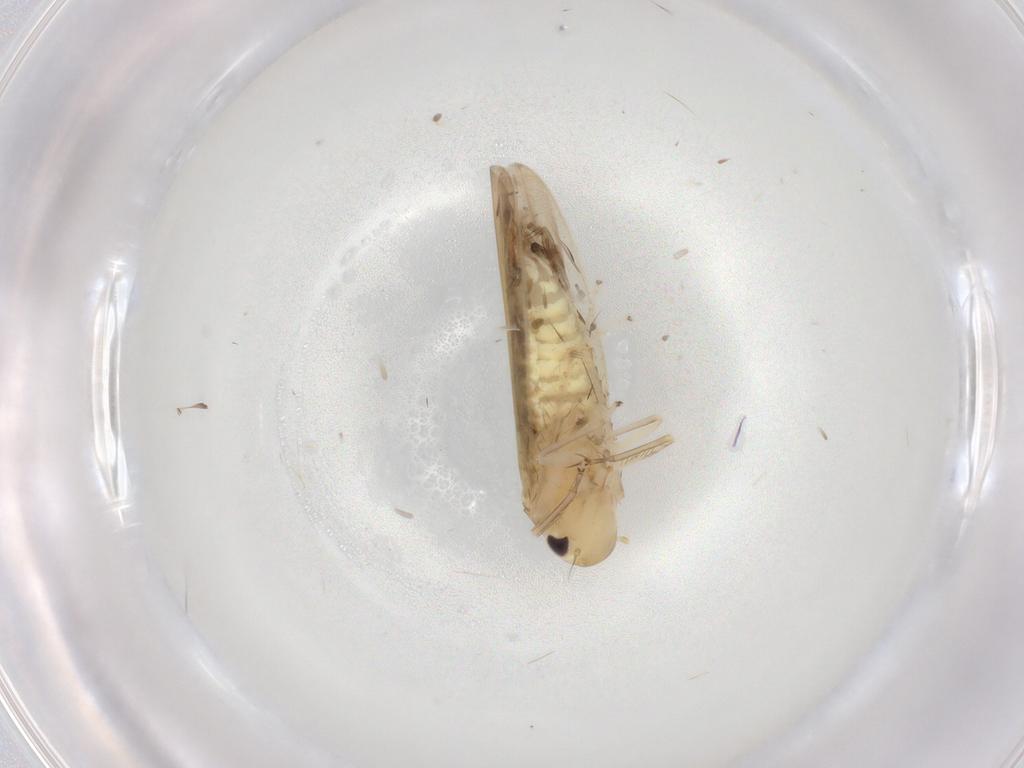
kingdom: Animalia
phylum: Arthropoda
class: Insecta
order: Hemiptera
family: Cicadellidae
